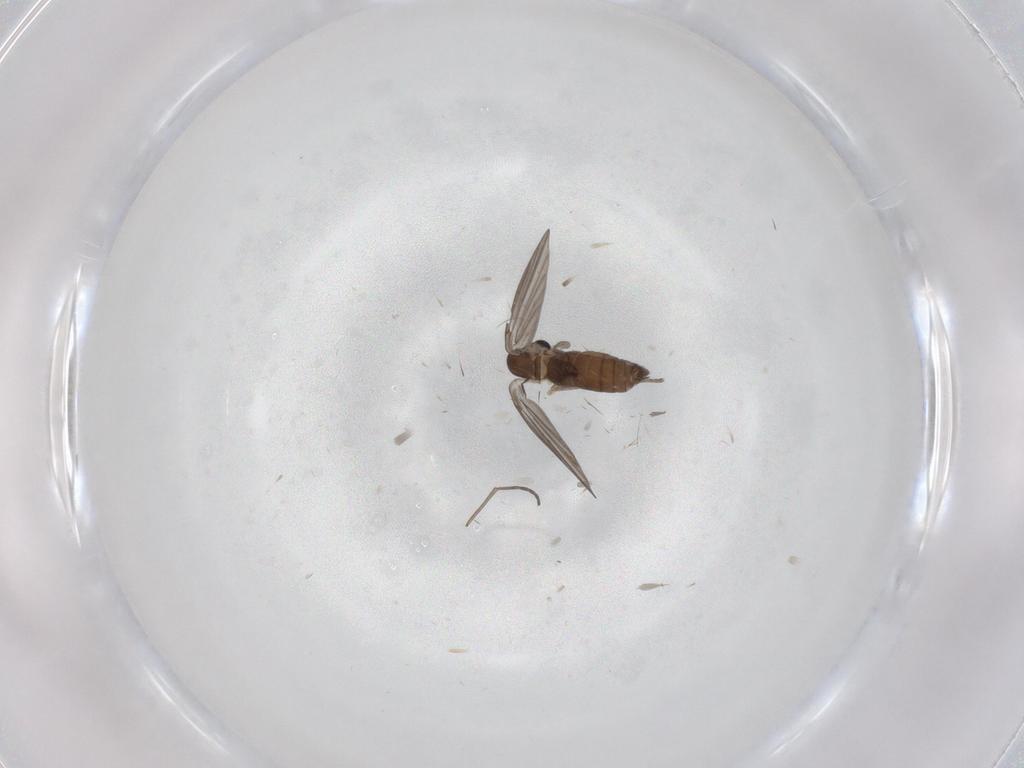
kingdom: Animalia
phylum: Arthropoda
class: Insecta
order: Diptera
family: Psychodidae
